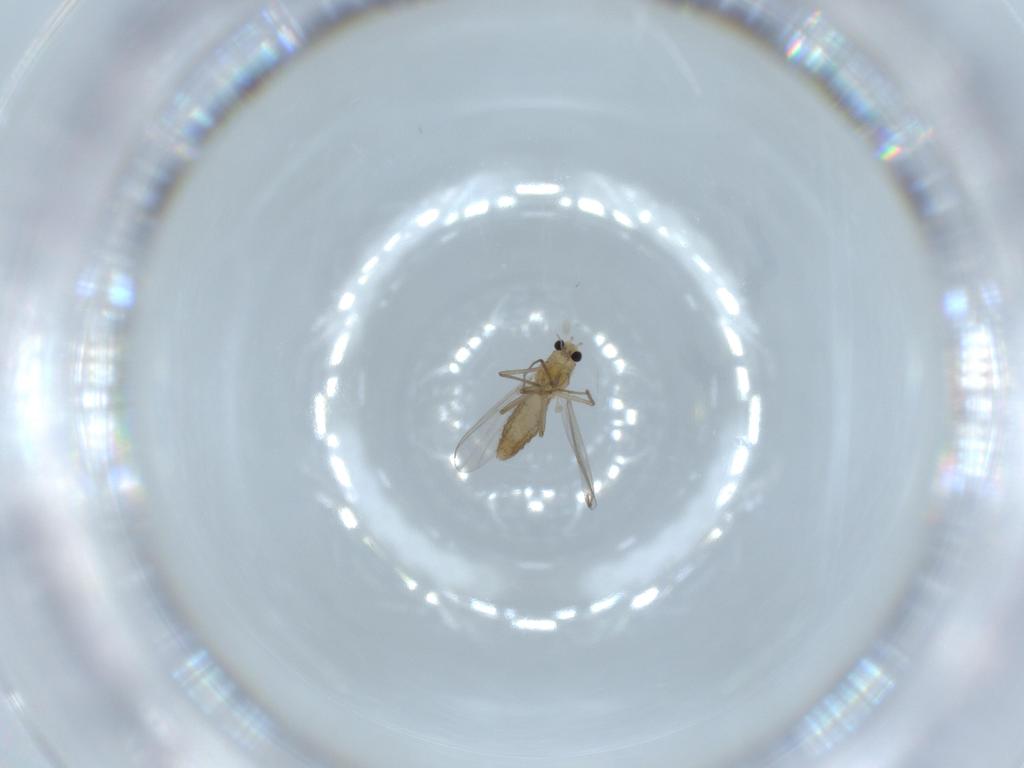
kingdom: Animalia
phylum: Arthropoda
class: Insecta
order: Diptera
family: Chironomidae
